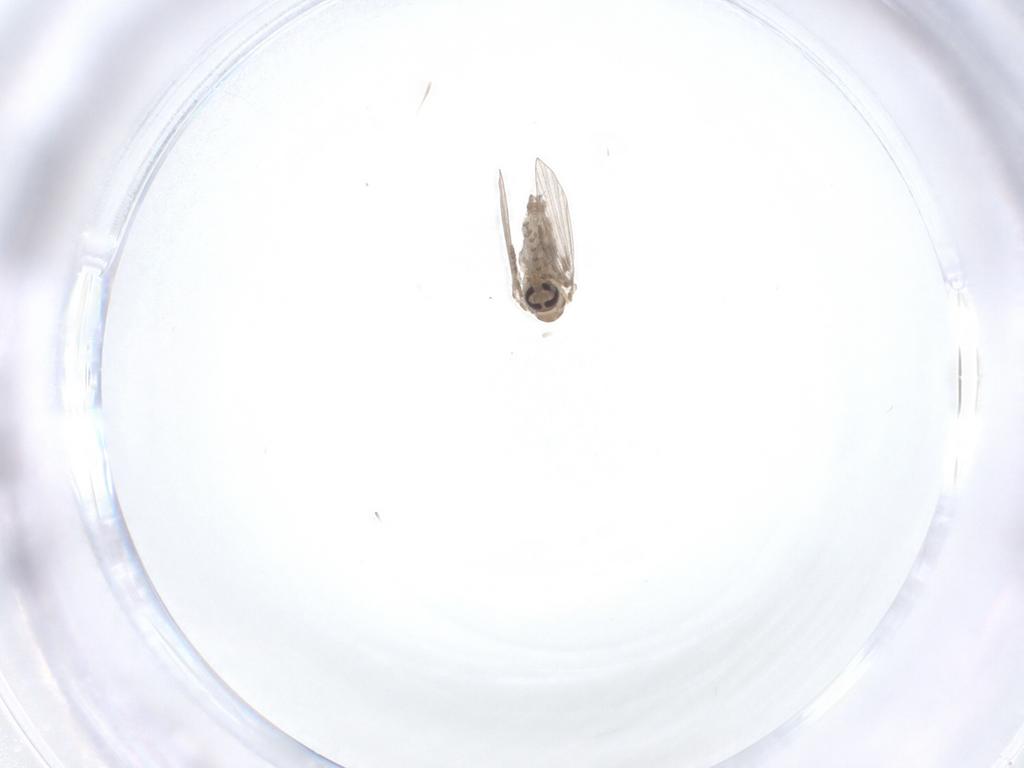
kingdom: Animalia
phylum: Arthropoda
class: Insecta
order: Diptera
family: Psychodidae
